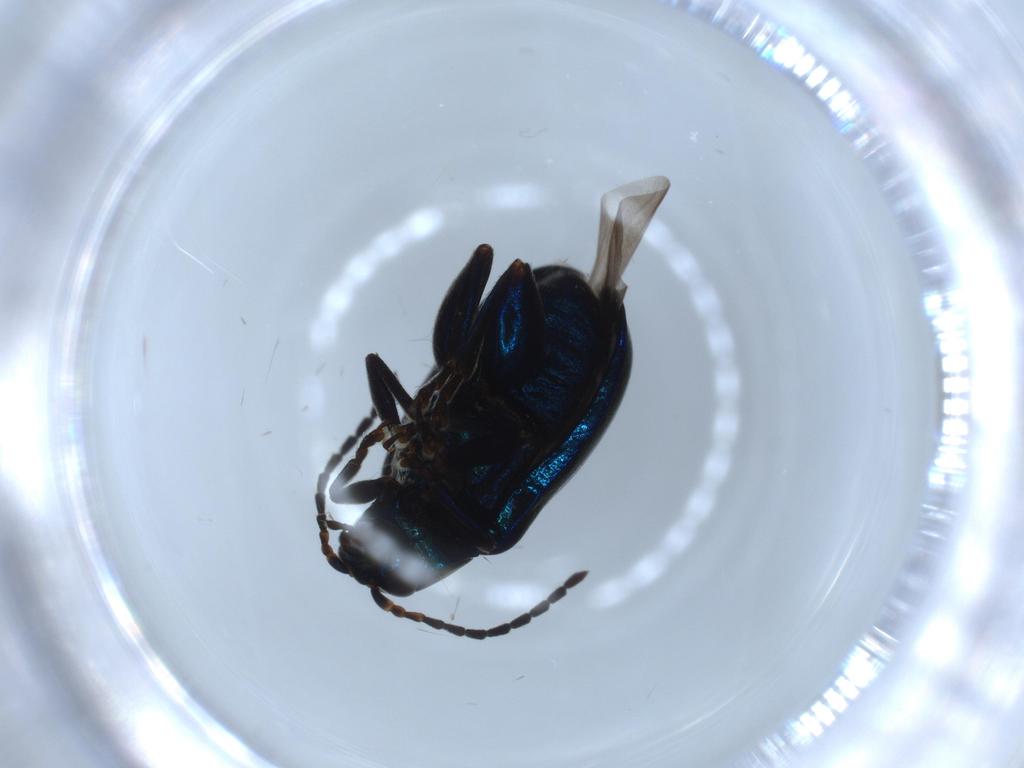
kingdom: Animalia
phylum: Arthropoda
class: Insecta
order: Coleoptera
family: Chrysomelidae
